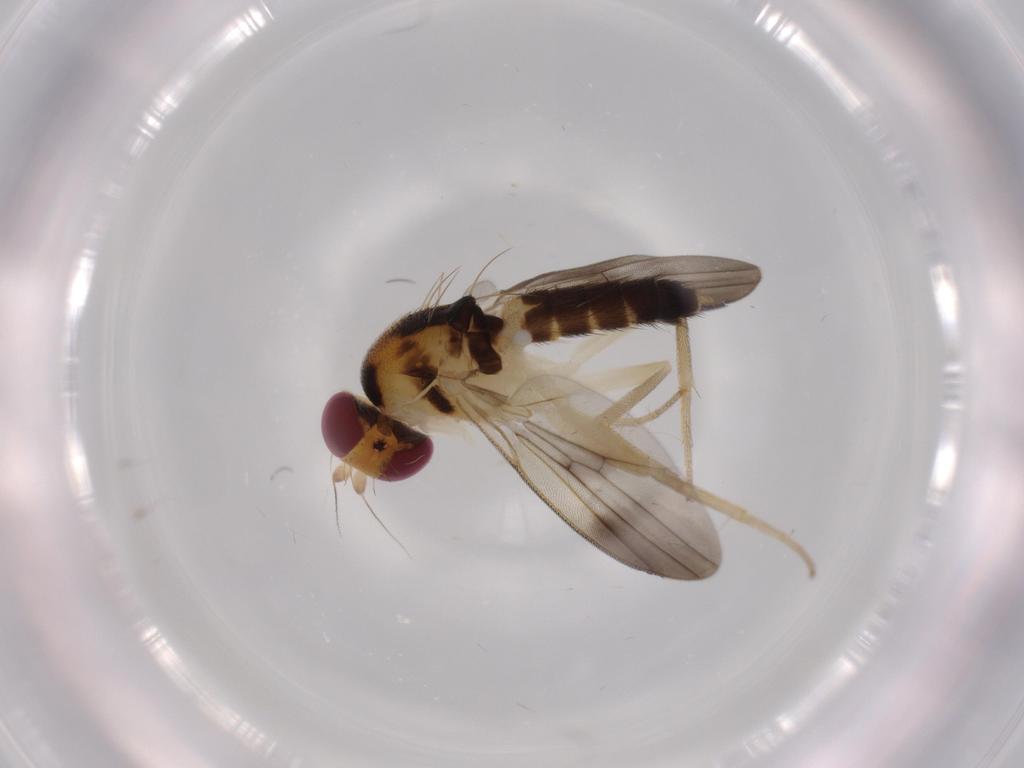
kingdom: Animalia
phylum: Arthropoda
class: Insecta
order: Diptera
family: Clusiidae
